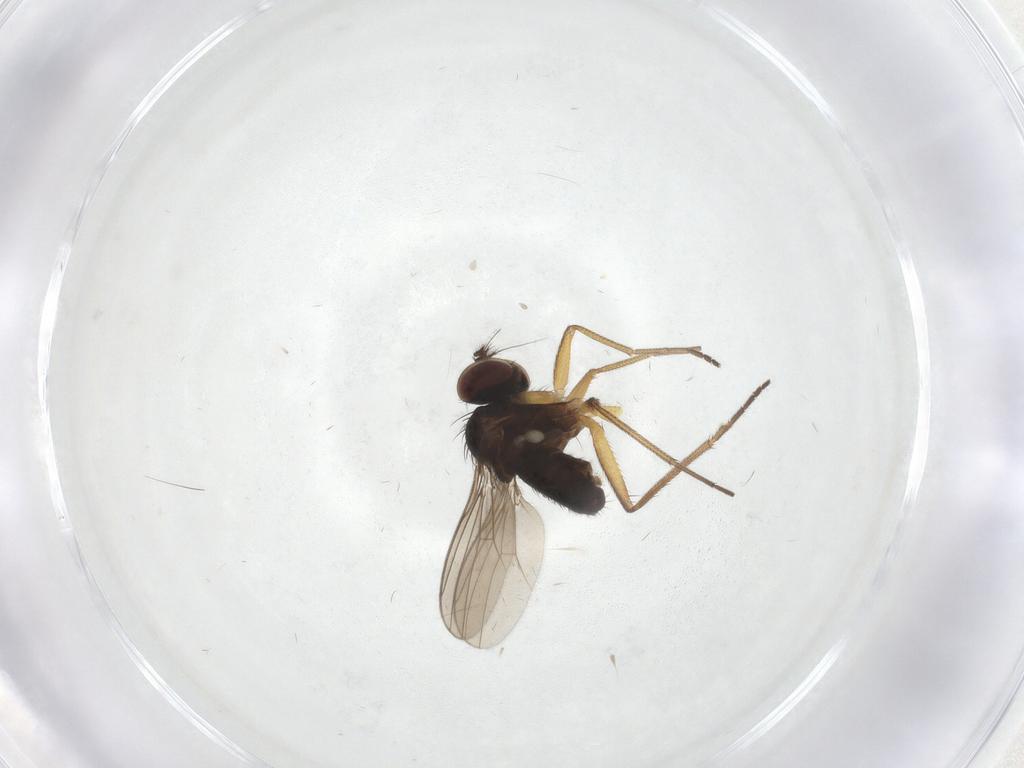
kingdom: Animalia
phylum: Arthropoda
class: Insecta
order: Diptera
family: Dolichopodidae
